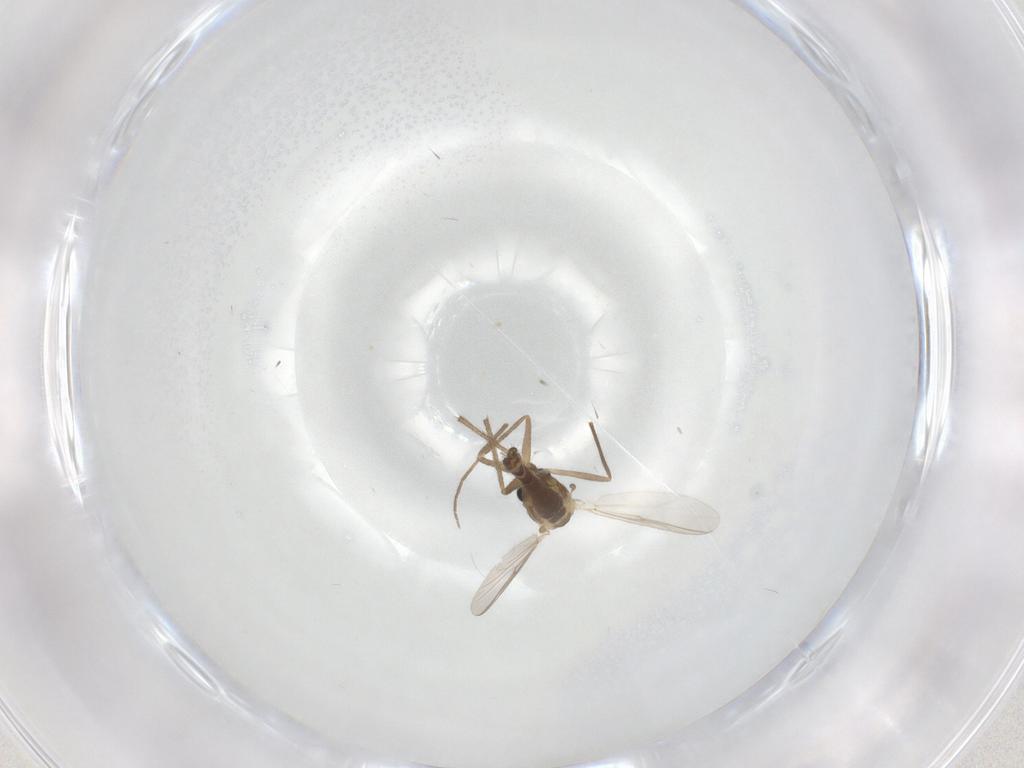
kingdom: Animalia
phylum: Arthropoda
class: Insecta
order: Diptera
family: Chironomidae
